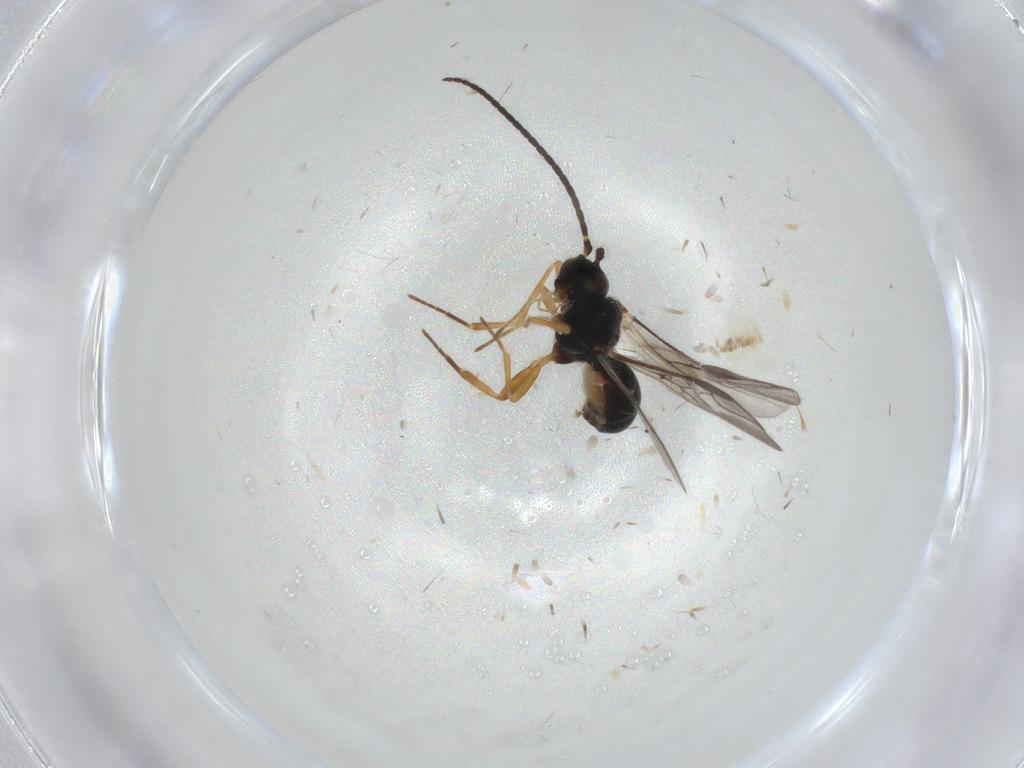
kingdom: Animalia
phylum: Arthropoda
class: Insecta
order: Hymenoptera
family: Braconidae
